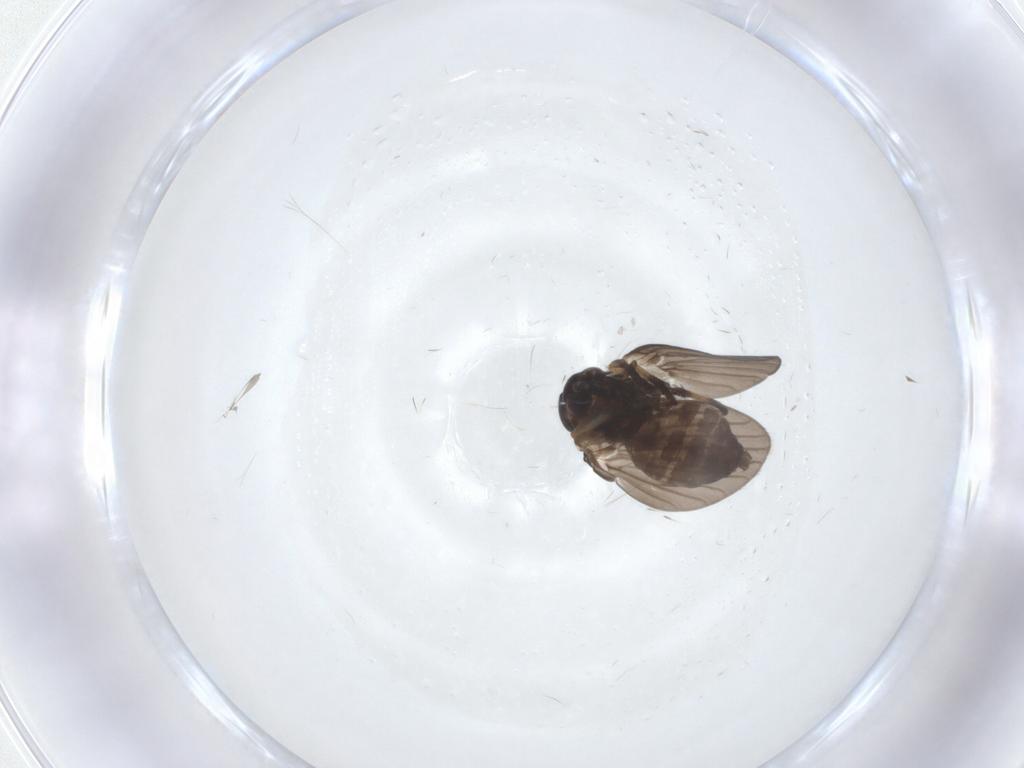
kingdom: Animalia
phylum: Arthropoda
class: Insecta
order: Diptera
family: Psychodidae
